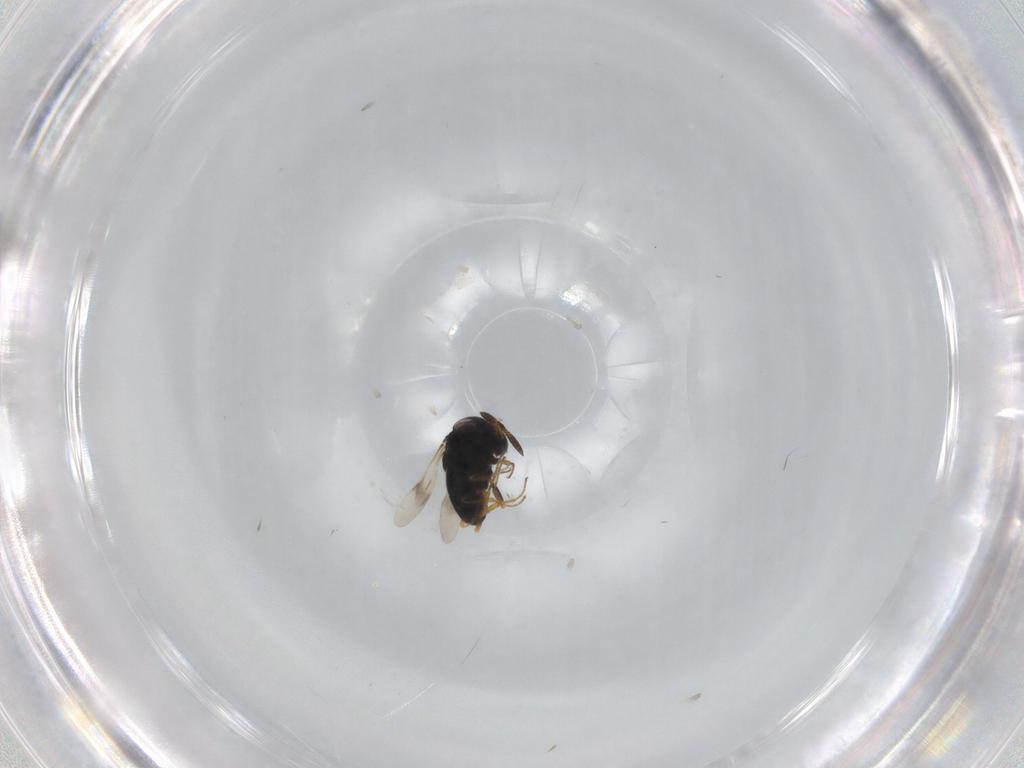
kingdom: Animalia
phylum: Arthropoda
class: Insecta
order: Hymenoptera
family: Scelionidae
